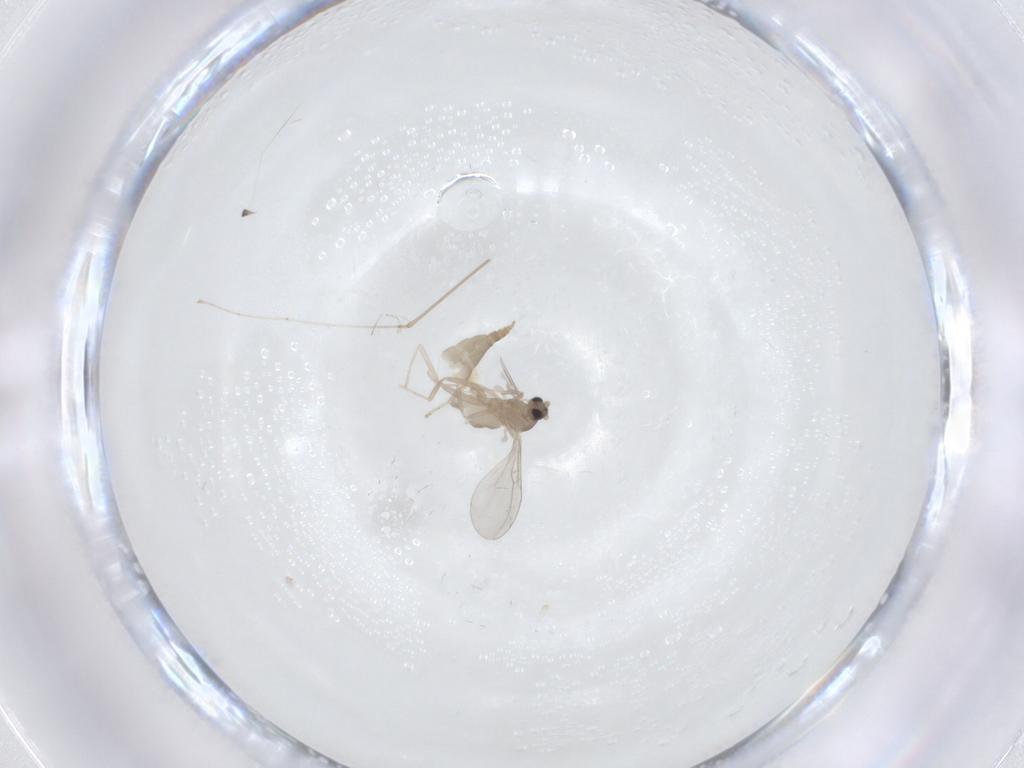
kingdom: Animalia
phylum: Arthropoda
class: Insecta
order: Diptera
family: Cecidomyiidae
